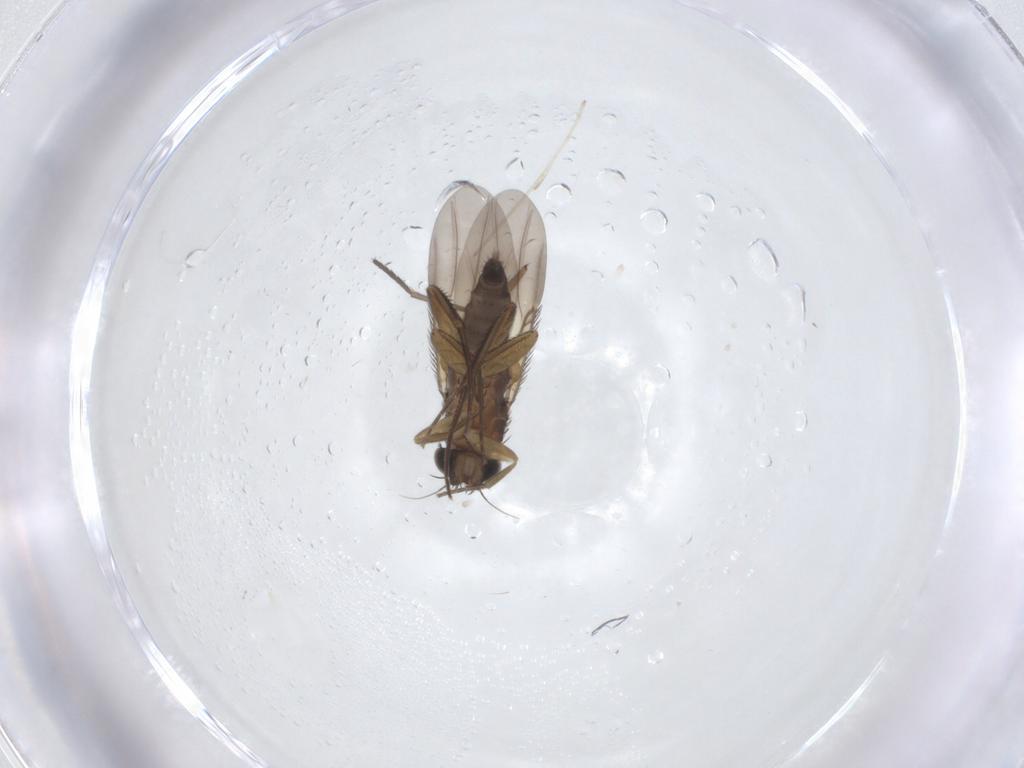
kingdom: Animalia
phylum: Arthropoda
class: Insecta
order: Diptera
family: Phoridae
